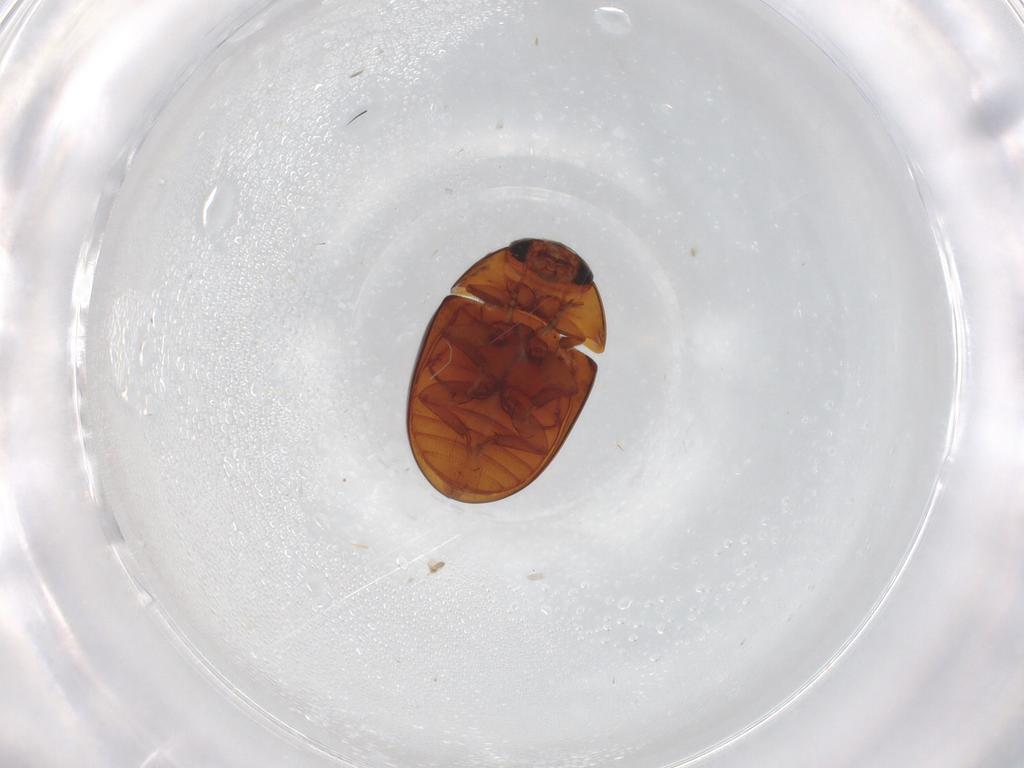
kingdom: Animalia
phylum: Arthropoda
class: Insecta
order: Coleoptera
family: Phalacridae
